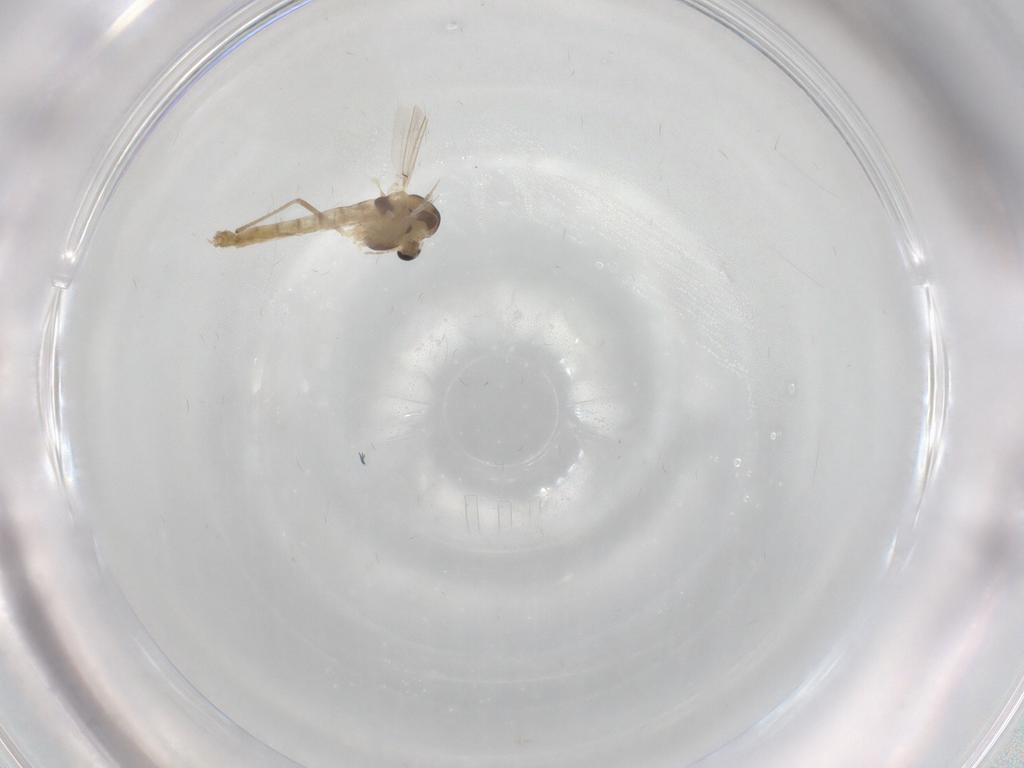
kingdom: Animalia
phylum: Arthropoda
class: Insecta
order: Diptera
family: Chironomidae
